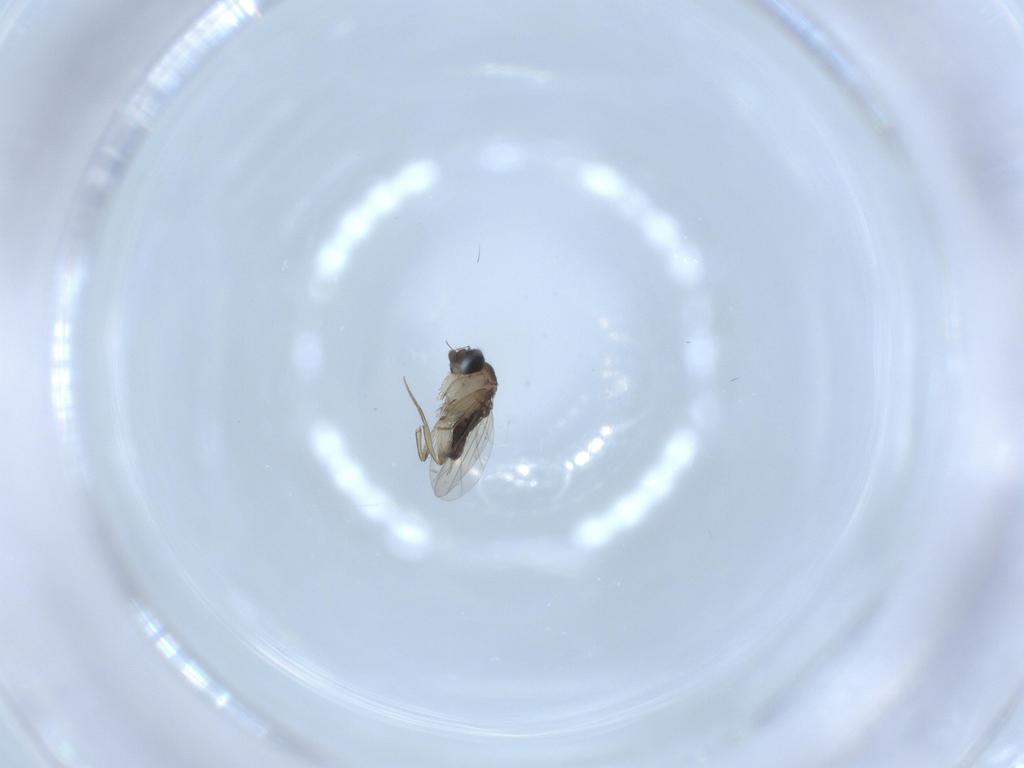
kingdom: Animalia
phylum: Arthropoda
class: Insecta
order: Diptera
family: Phoridae
